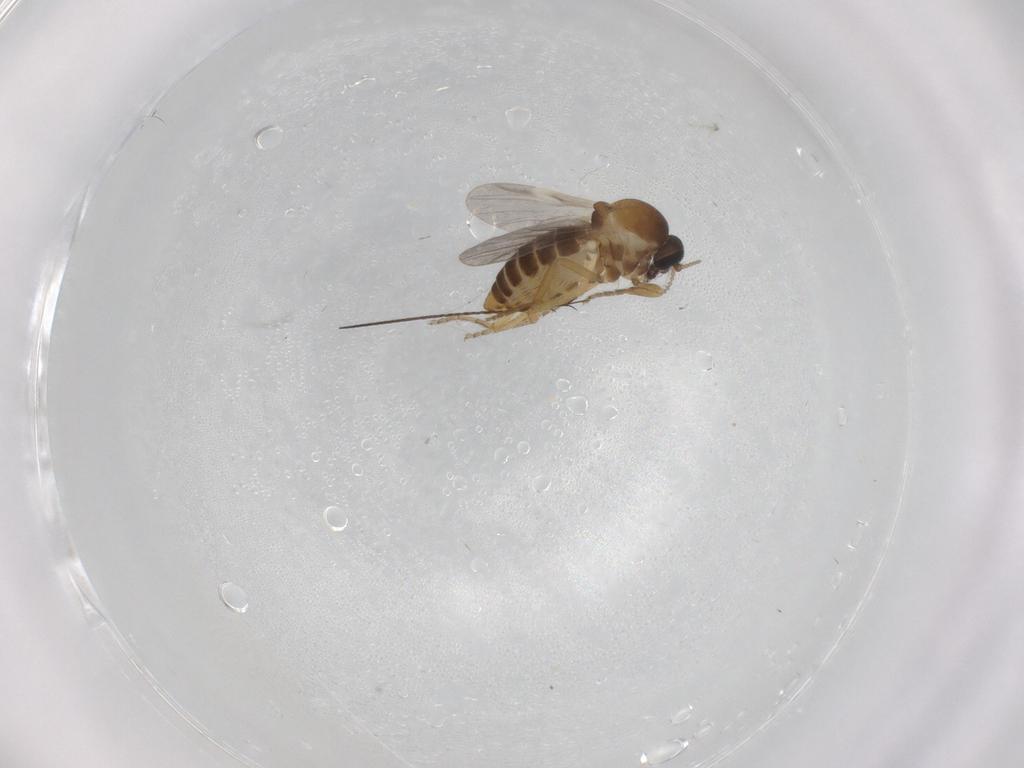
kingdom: Animalia
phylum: Arthropoda
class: Insecta
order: Diptera
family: Ceratopogonidae
